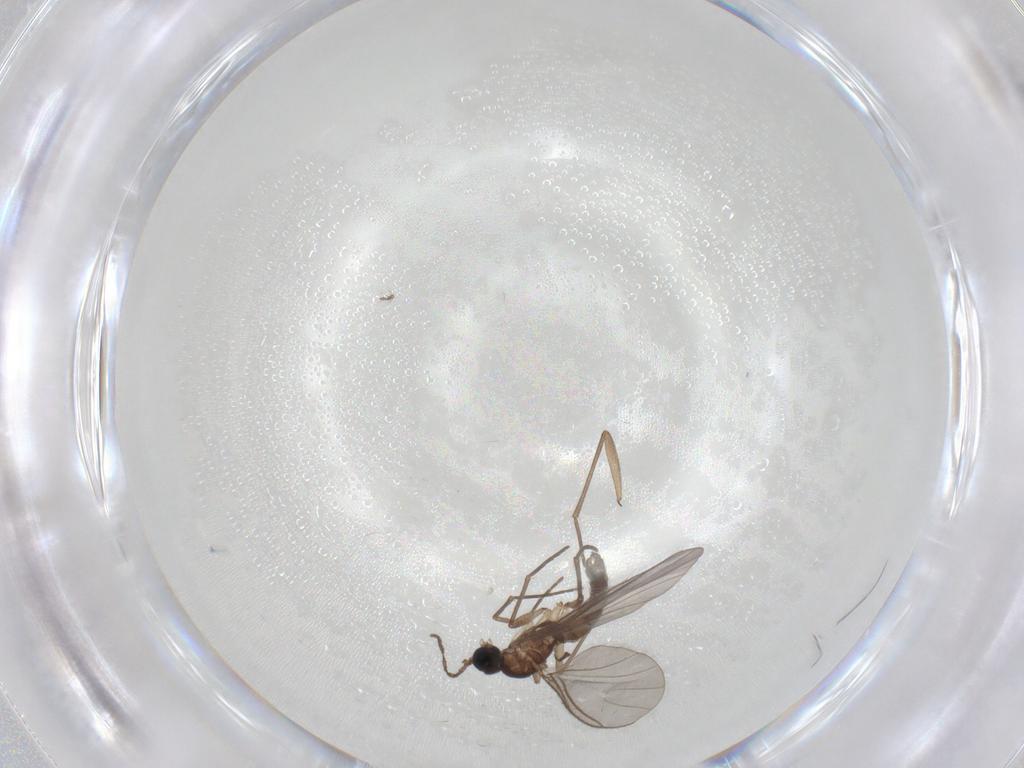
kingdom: Animalia
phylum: Arthropoda
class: Insecta
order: Diptera
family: Sciaridae
